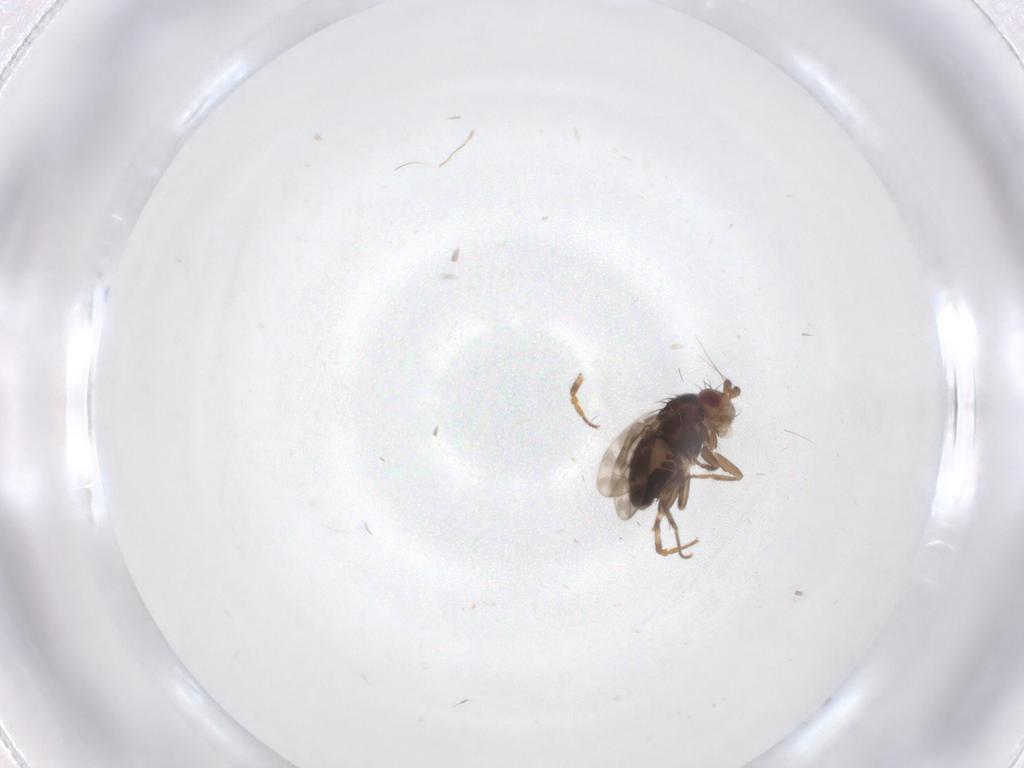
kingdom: Animalia
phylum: Arthropoda
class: Insecta
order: Diptera
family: Sphaeroceridae
